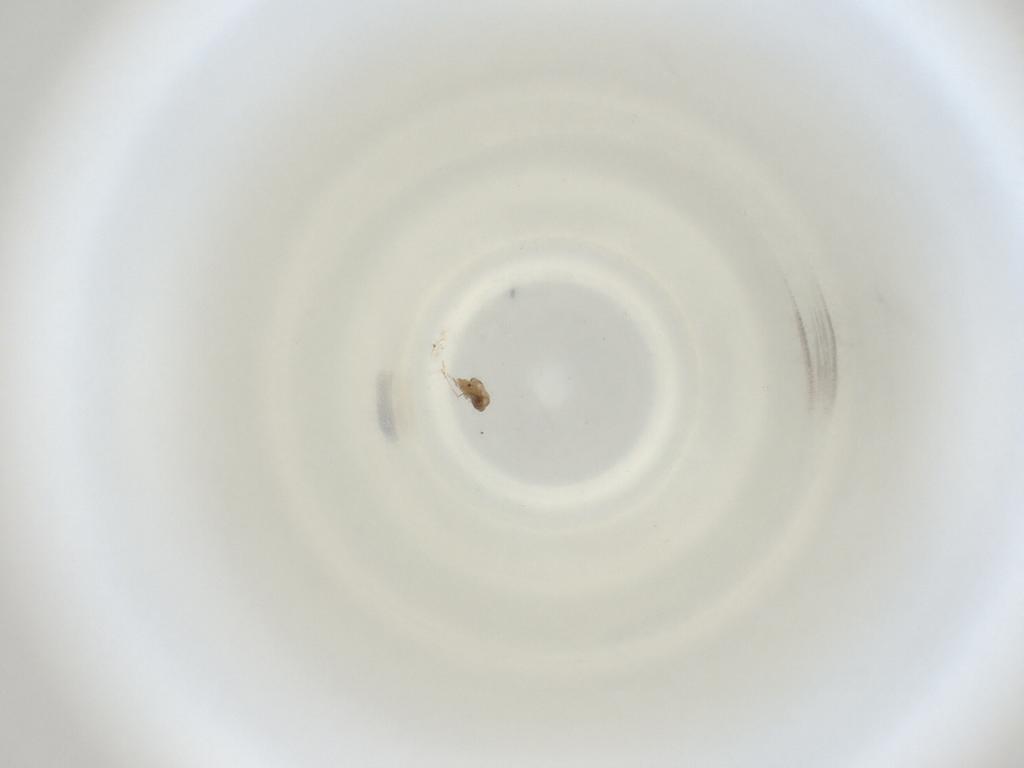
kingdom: Animalia
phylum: Arthropoda
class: Insecta
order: Diptera
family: Cecidomyiidae
